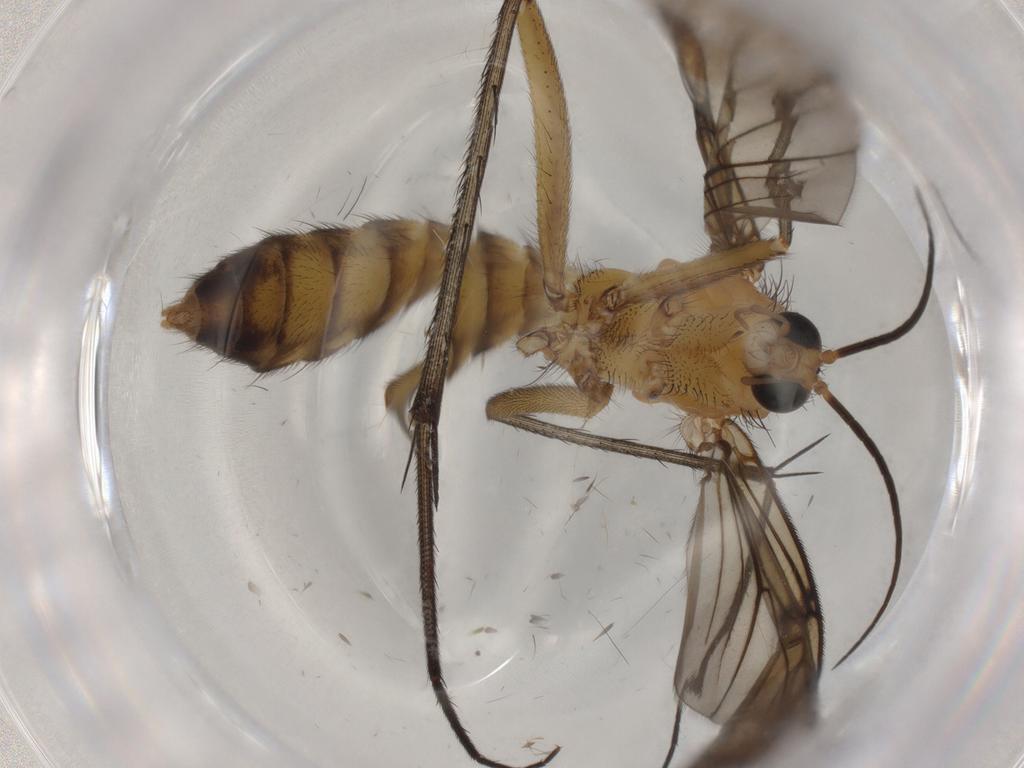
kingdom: Animalia
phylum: Arthropoda
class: Insecta
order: Diptera
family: Mycetophilidae
